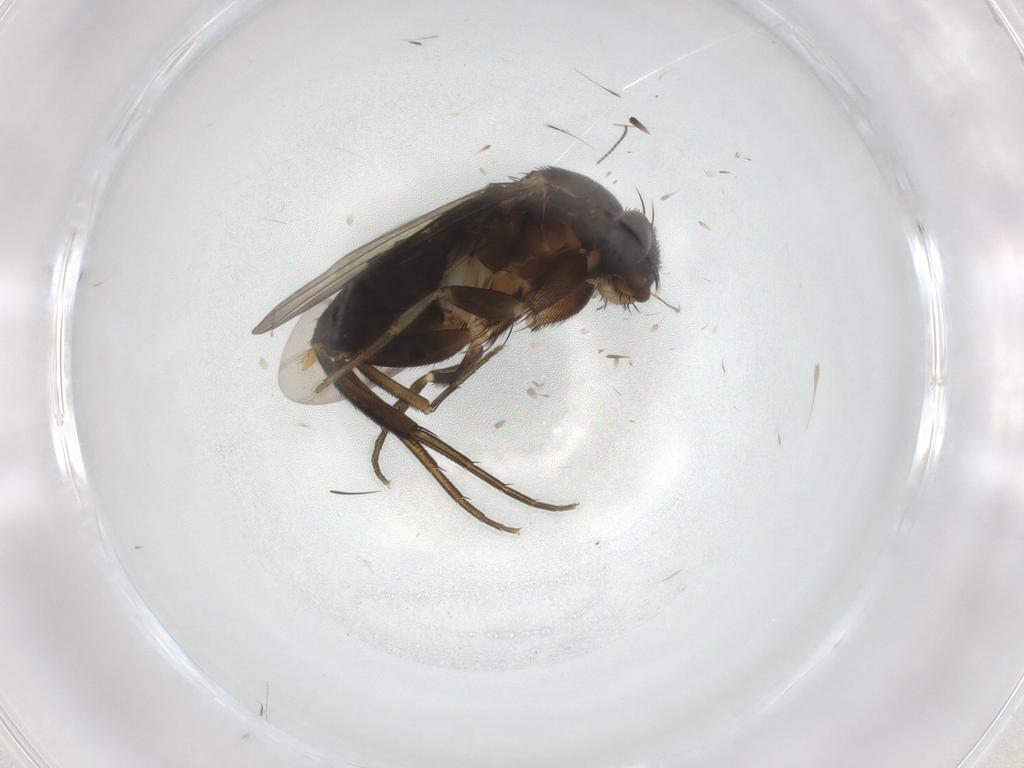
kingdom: Animalia
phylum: Arthropoda
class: Insecta
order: Diptera
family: Phoridae
